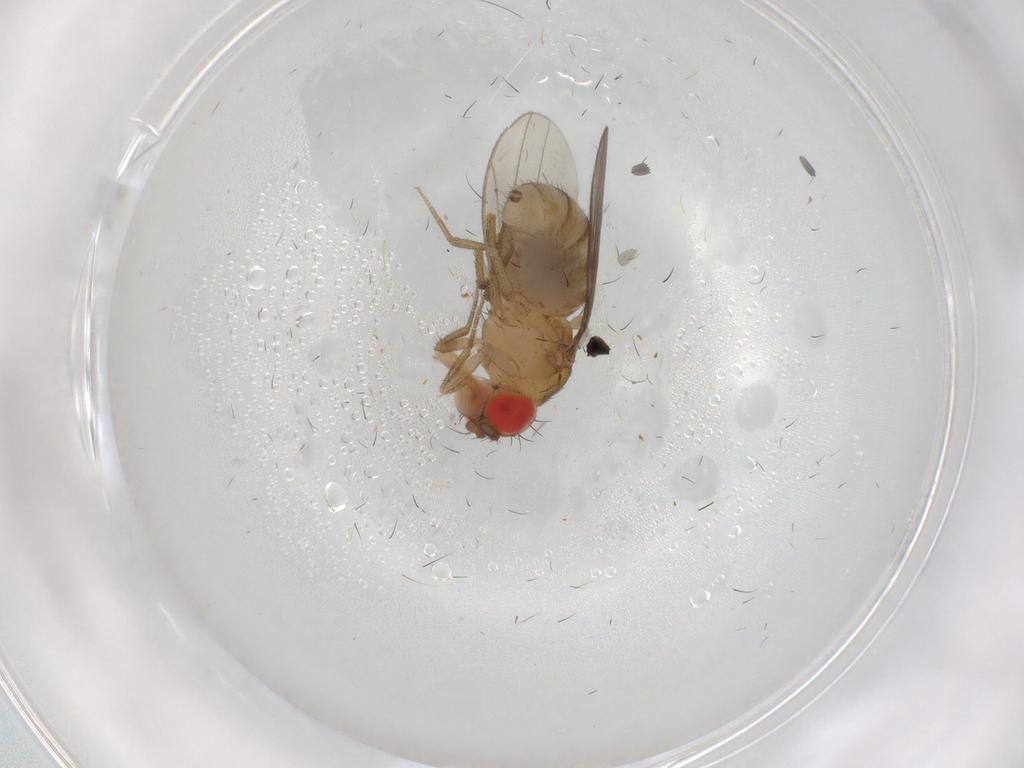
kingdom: Animalia
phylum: Arthropoda
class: Insecta
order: Diptera
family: Drosophilidae
